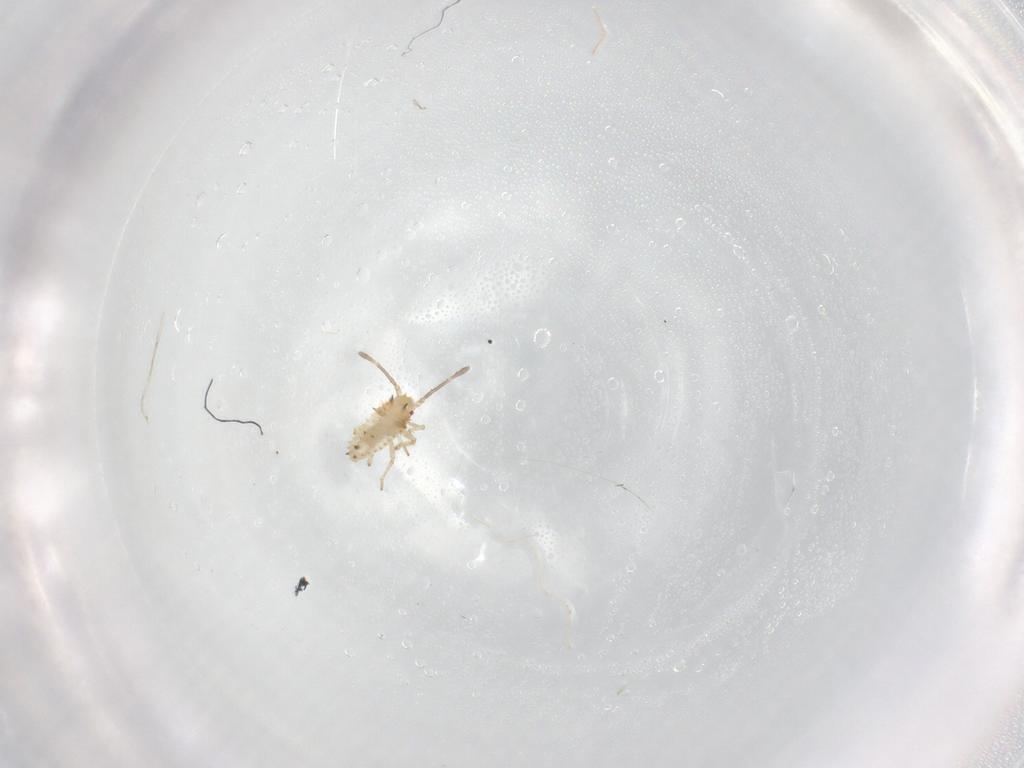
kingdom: Animalia
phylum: Arthropoda
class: Insecta
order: Hemiptera
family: Tingidae
